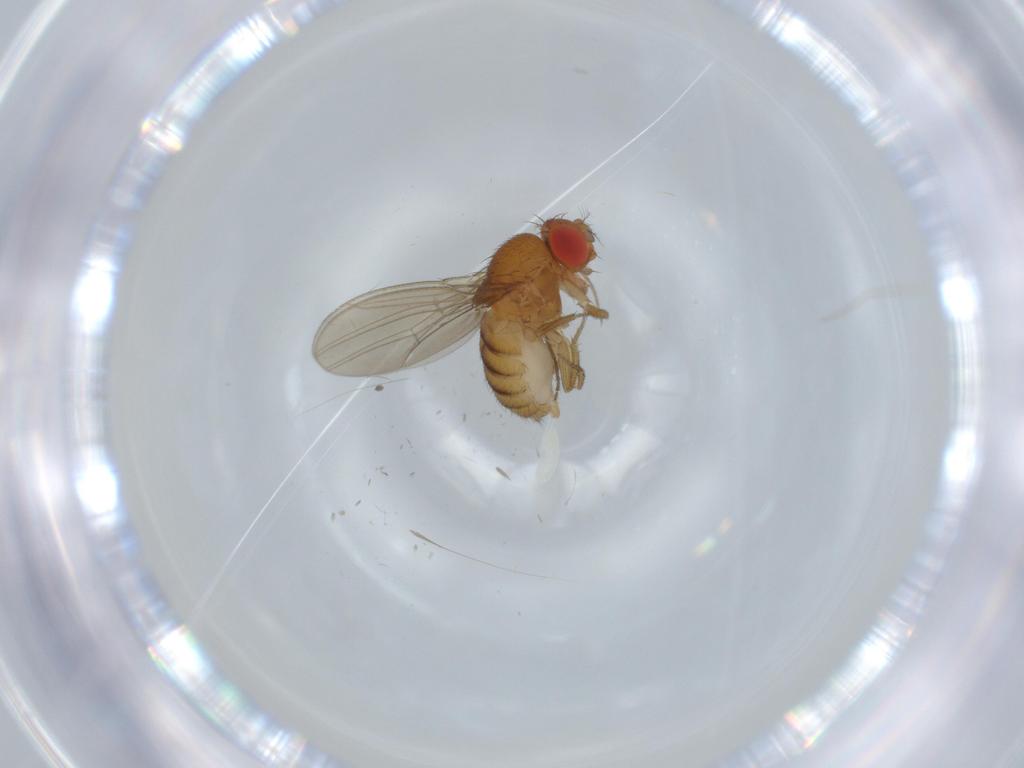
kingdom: Animalia
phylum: Arthropoda
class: Insecta
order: Diptera
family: Drosophilidae
